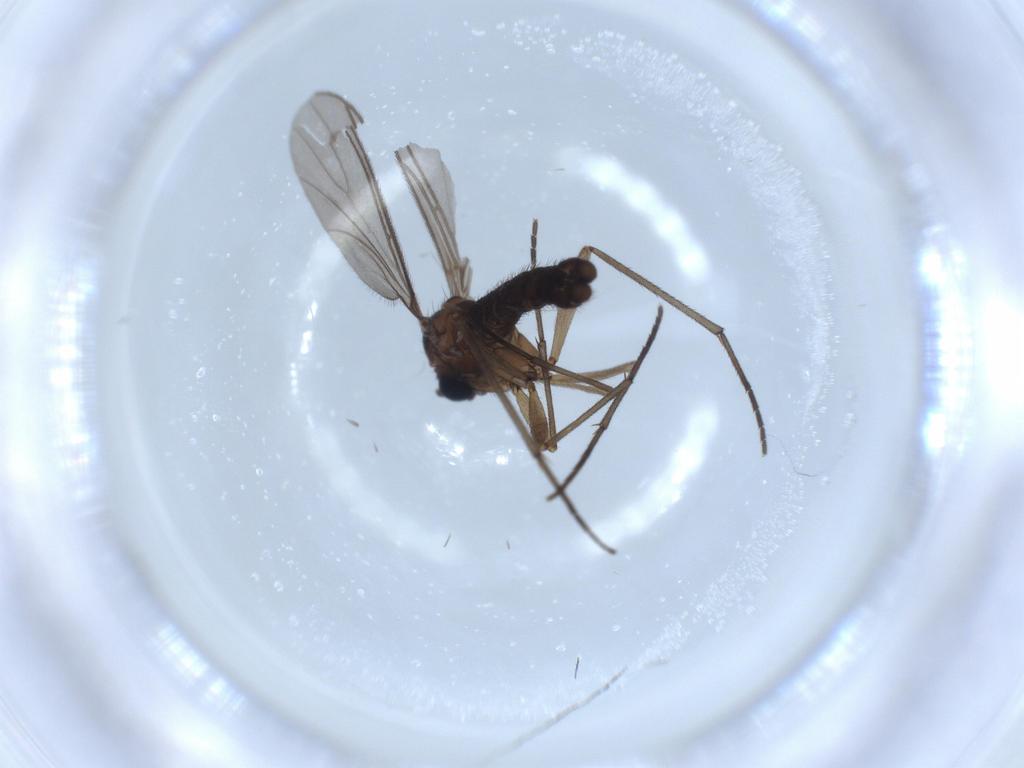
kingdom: Animalia
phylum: Arthropoda
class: Insecta
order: Diptera
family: Sciaridae
